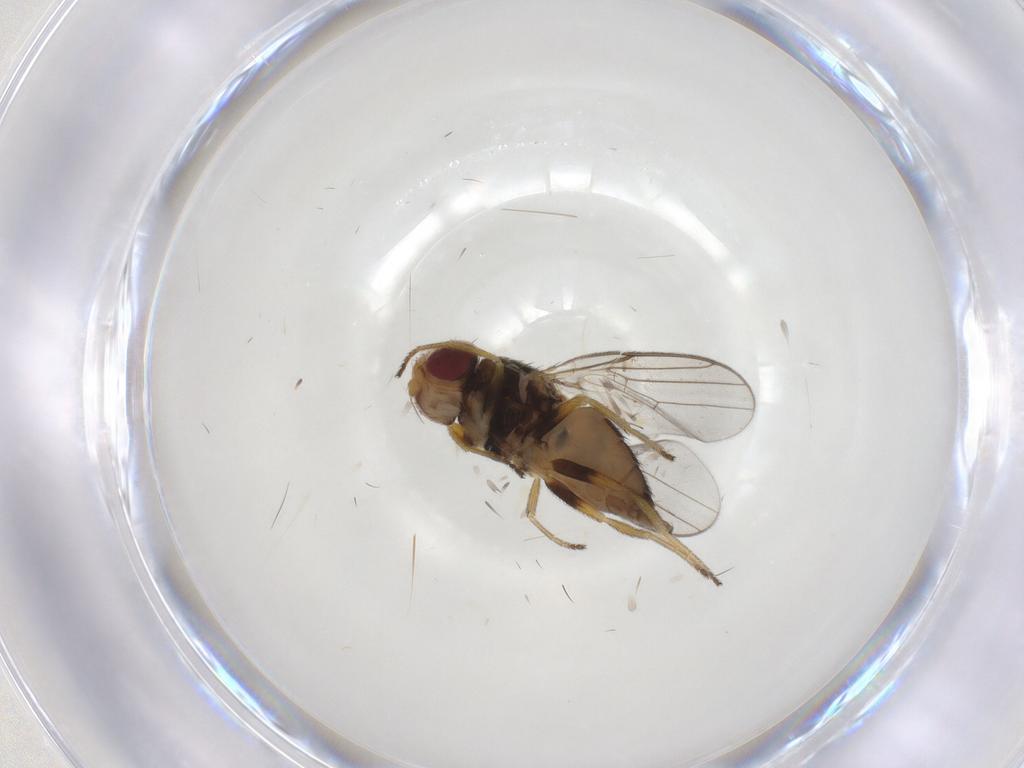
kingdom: Animalia
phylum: Arthropoda
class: Insecta
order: Diptera
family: Chloropidae
